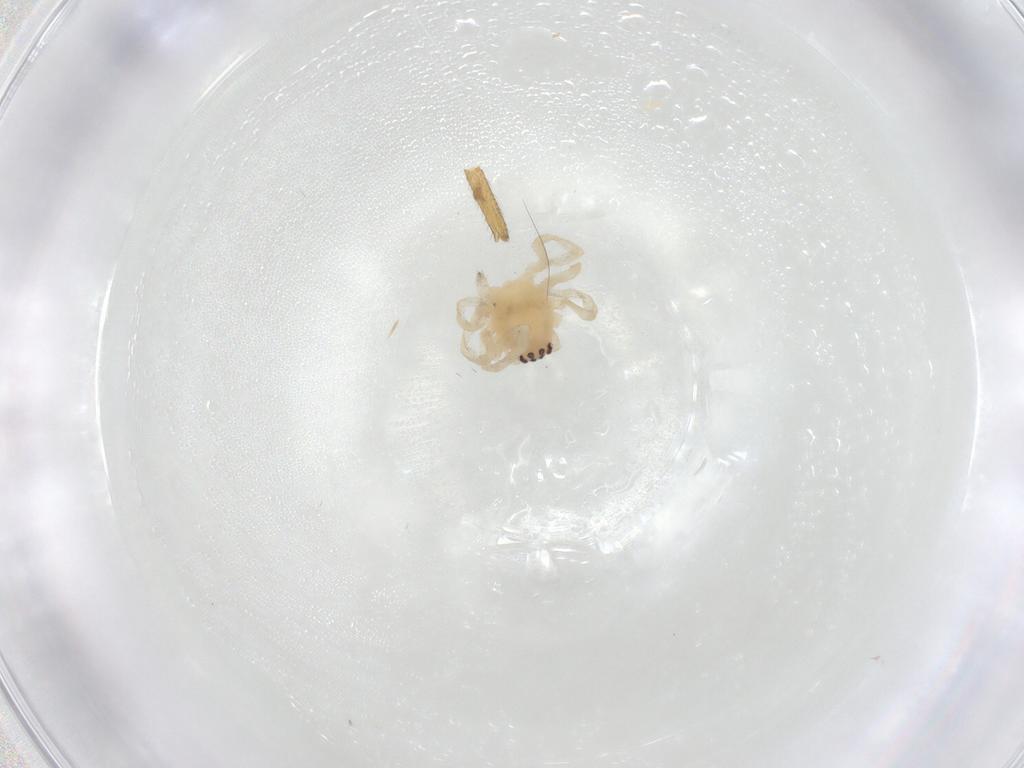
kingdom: Animalia
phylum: Arthropoda
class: Arachnida
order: Araneae
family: Cheiracanthiidae
